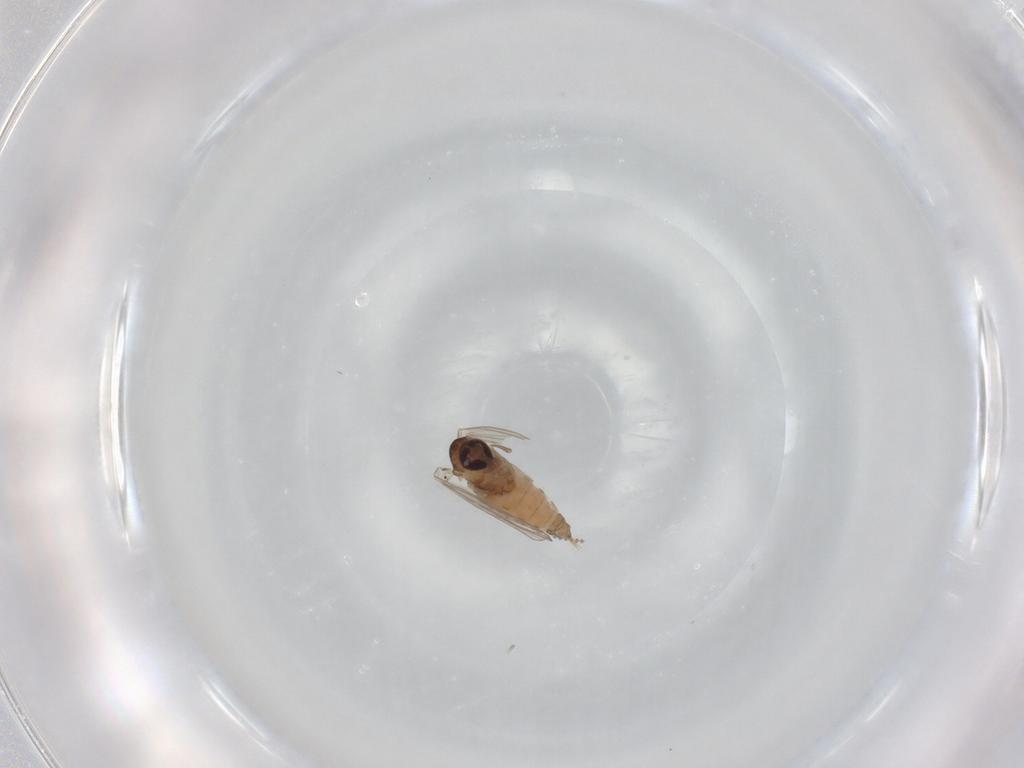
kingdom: Animalia
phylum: Arthropoda
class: Insecta
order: Diptera
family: Psychodidae
